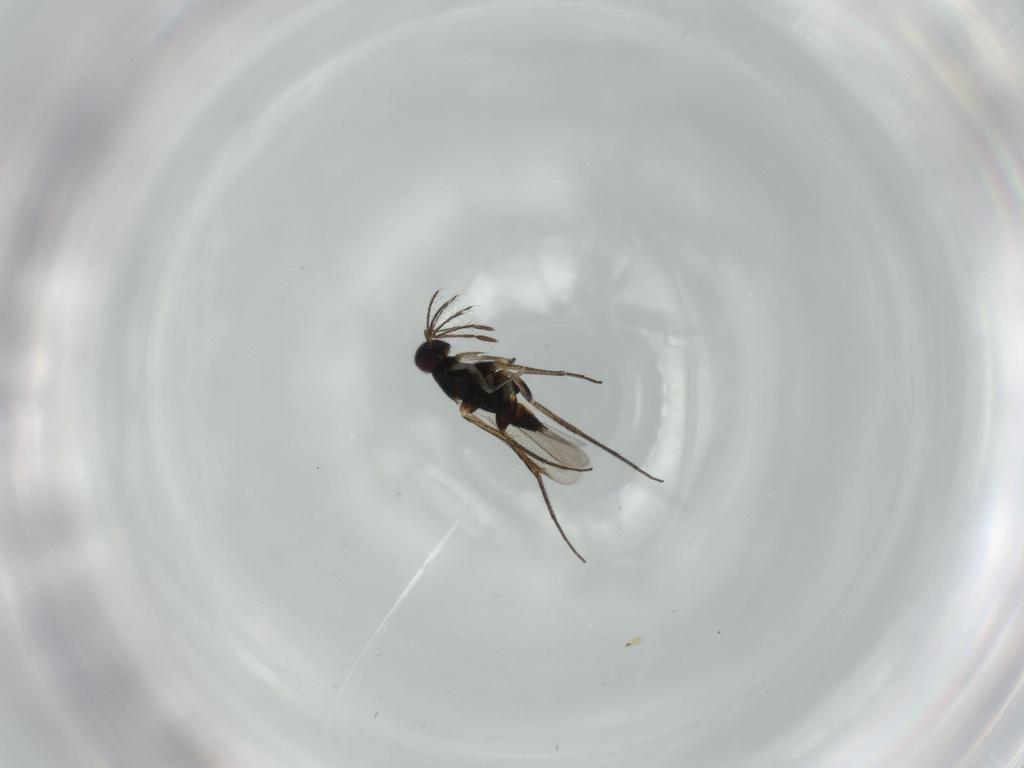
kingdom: Animalia
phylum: Arthropoda
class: Insecta
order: Hymenoptera
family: Eulophidae
